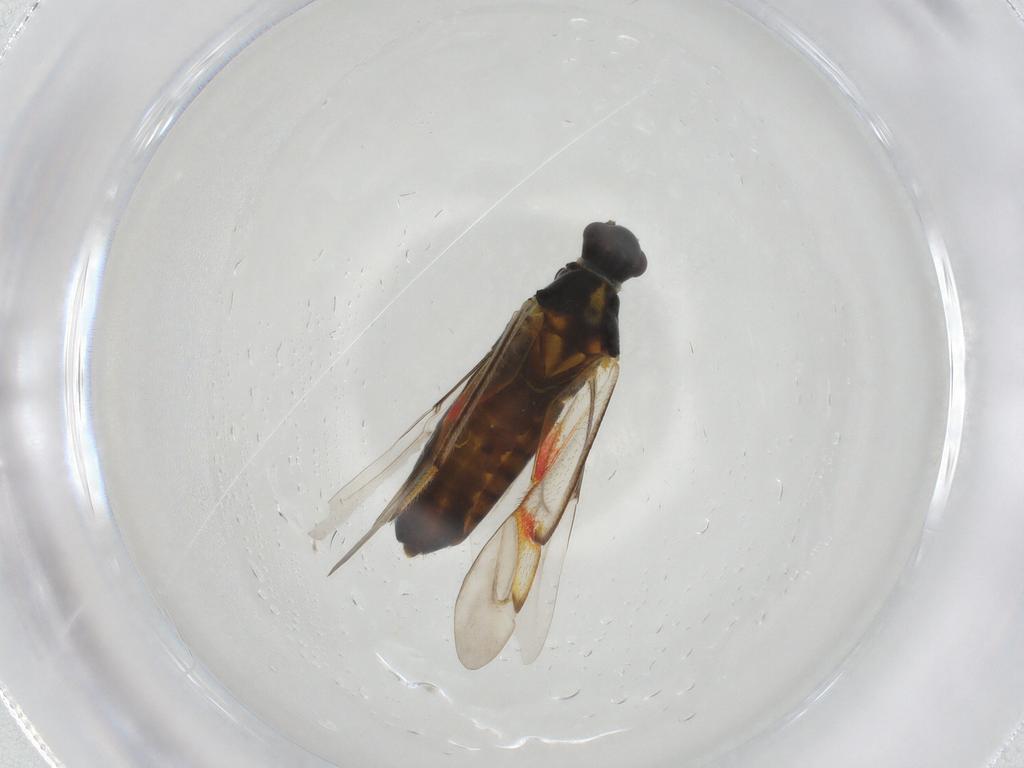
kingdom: Animalia
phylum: Arthropoda
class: Insecta
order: Hemiptera
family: Miridae
